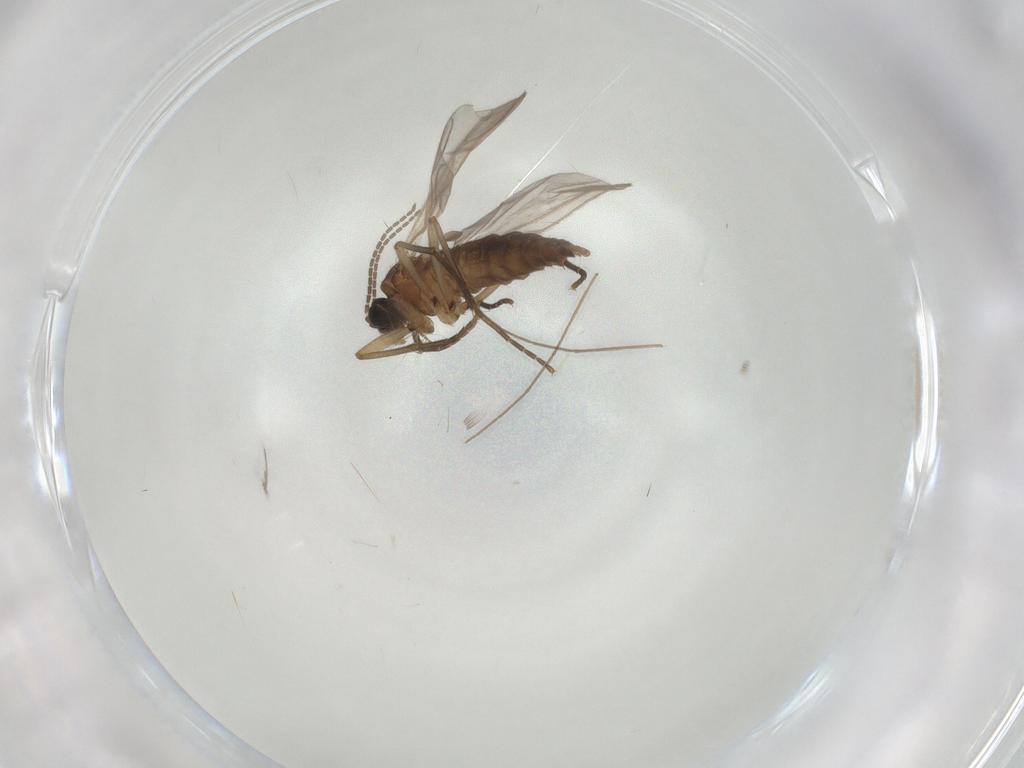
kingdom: Animalia
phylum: Arthropoda
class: Insecta
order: Diptera
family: Sciaridae
